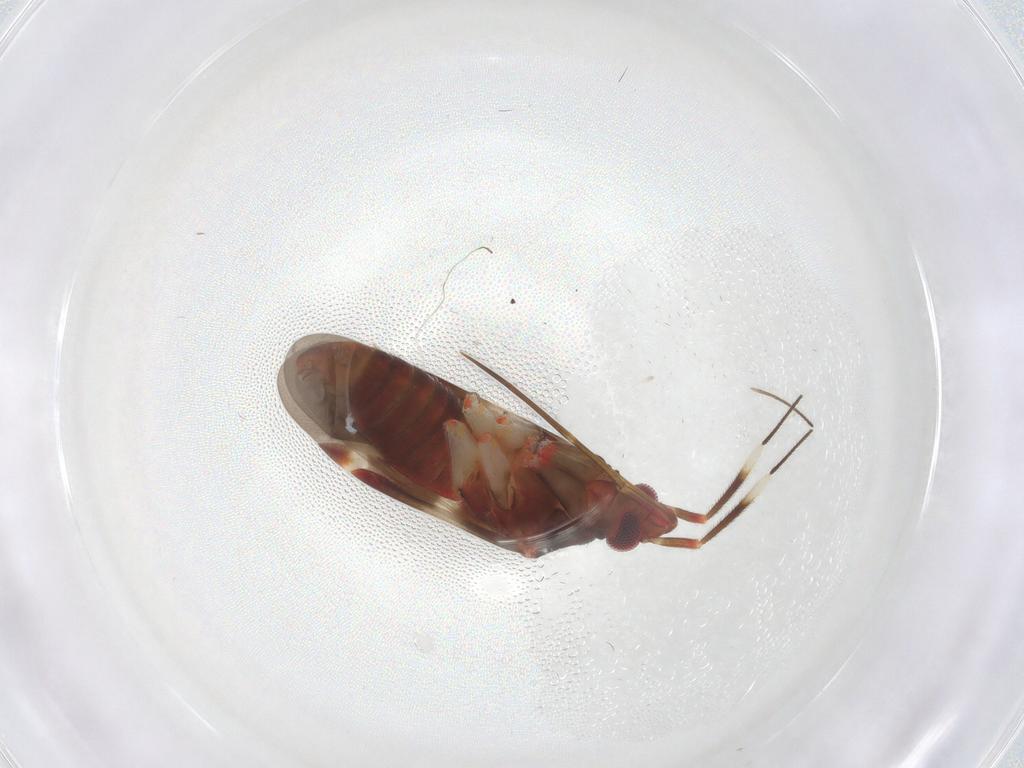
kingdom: Animalia
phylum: Arthropoda
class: Insecta
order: Hemiptera
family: Miridae
